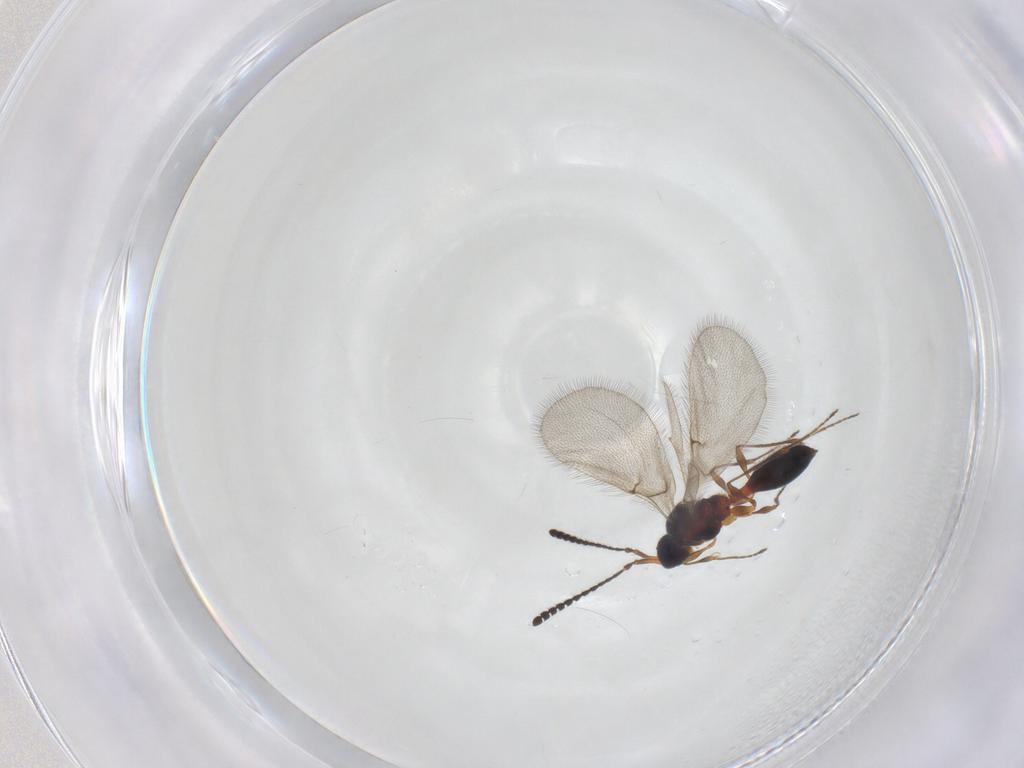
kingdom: Animalia
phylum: Arthropoda
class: Insecta
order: Hymenoptera
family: Diapriidae
